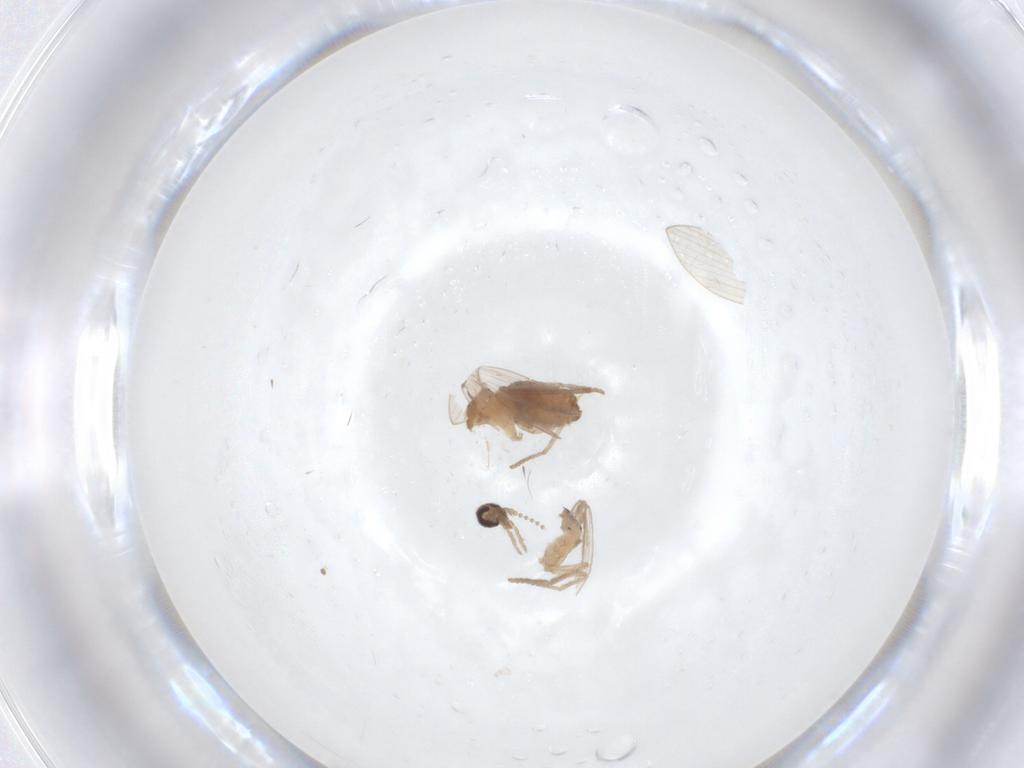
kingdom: Animalia
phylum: Arthropoda
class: Insecta
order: Diptera
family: Psychodidae
